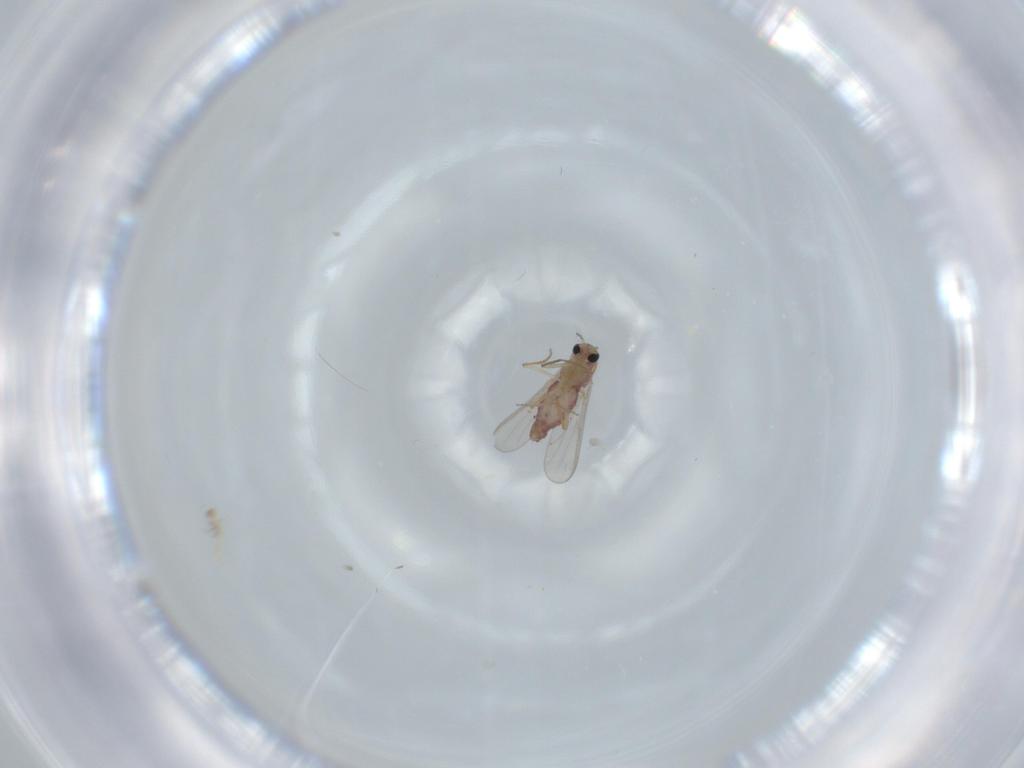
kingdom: Animalia
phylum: Arthropoda
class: Insecta
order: Diptera
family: Chironomidae
